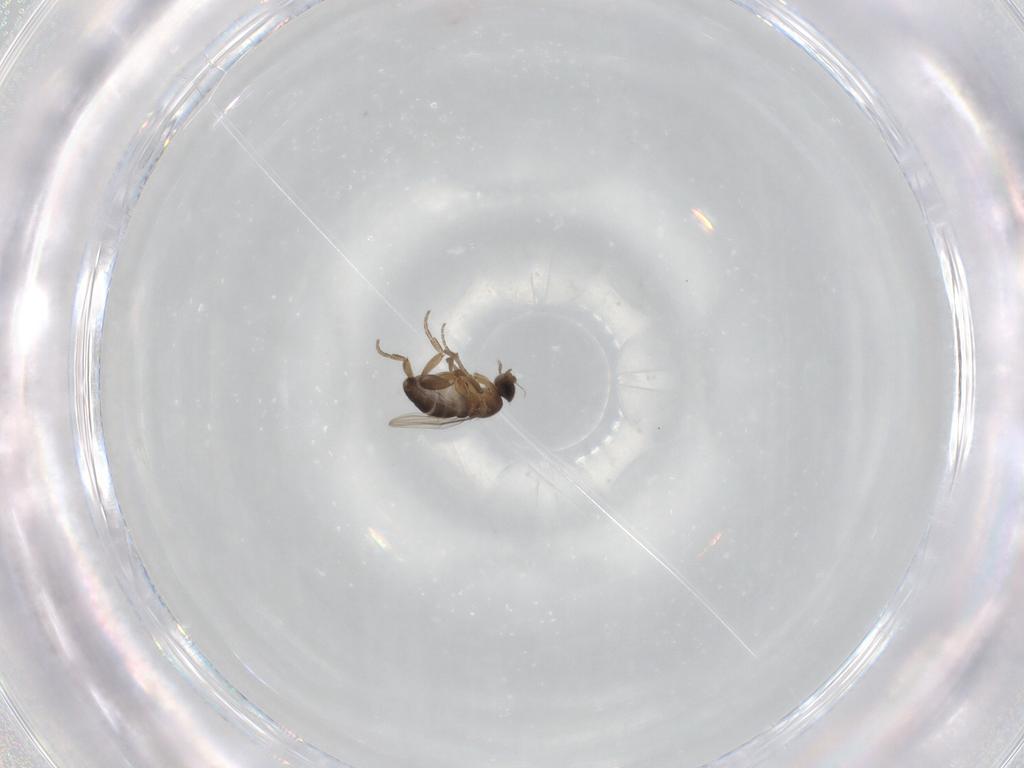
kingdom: Animalia
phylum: Arthropoda
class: Insecta
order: Diptera
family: Phoridae
